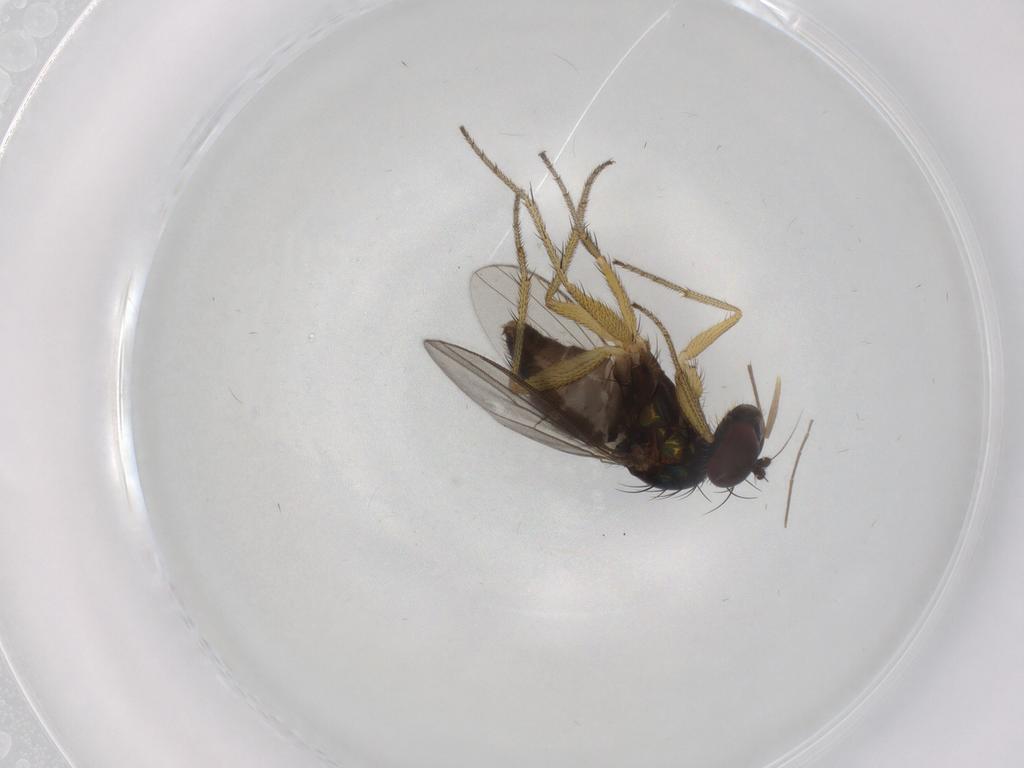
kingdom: Animalia
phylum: Arthropoda
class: Insecta
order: Diptera
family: Chironomidae
